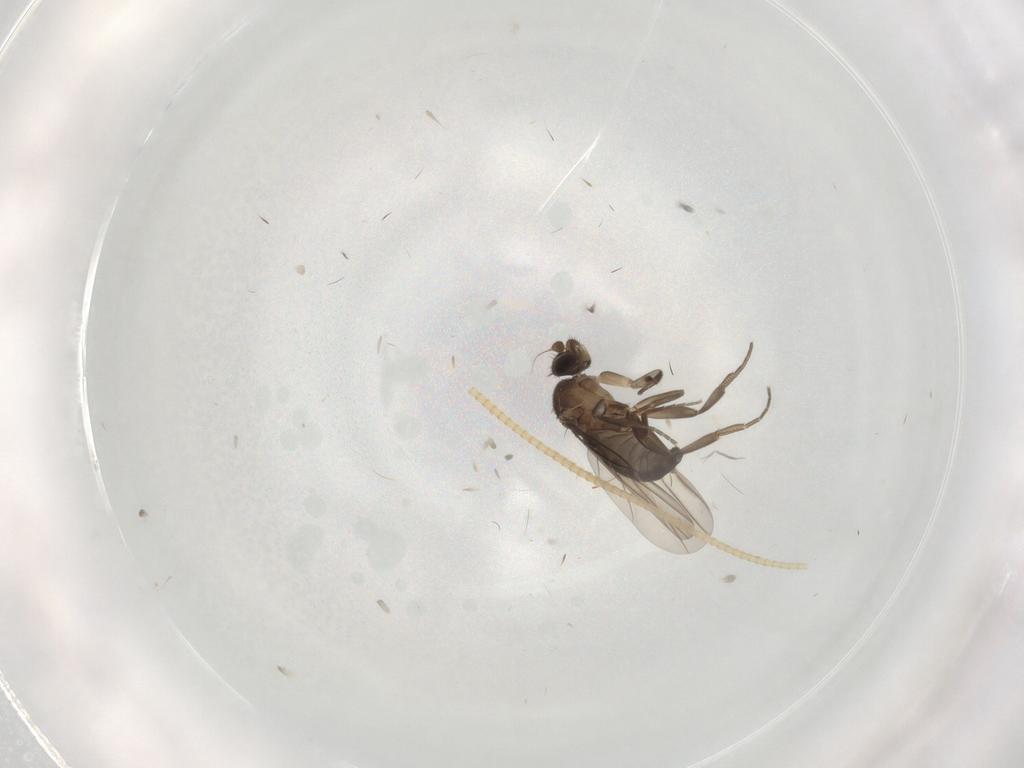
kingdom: Animalia
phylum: Arthropoda
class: Insecta
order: Diptera
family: Phoridae
